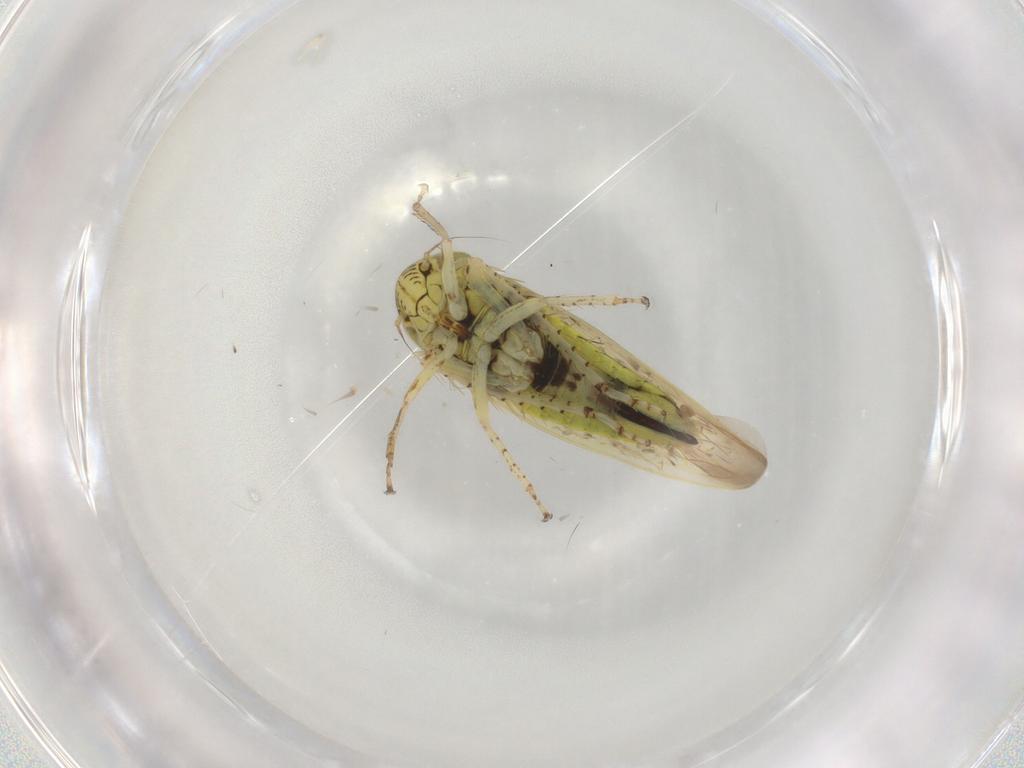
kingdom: Animalia
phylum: Arthropoda
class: Insecta
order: Hemiptera
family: Cicadellidae
